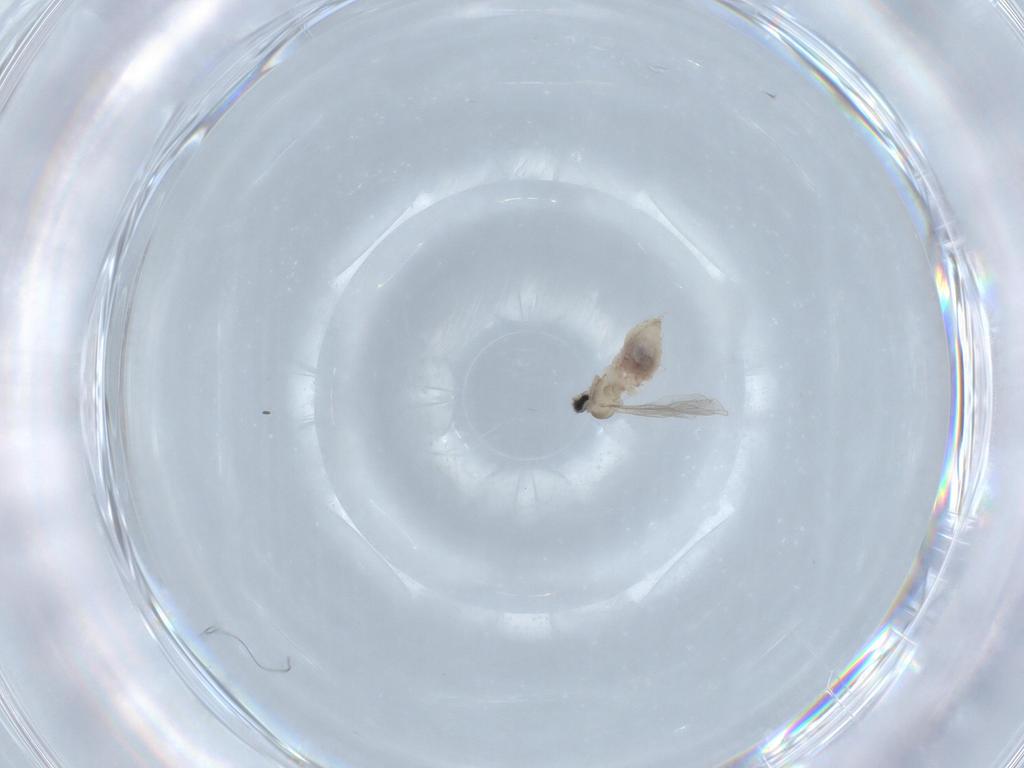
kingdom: Animalia
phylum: Arthropoda
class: Insecta
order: Diptera
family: Cecidomyiidae
